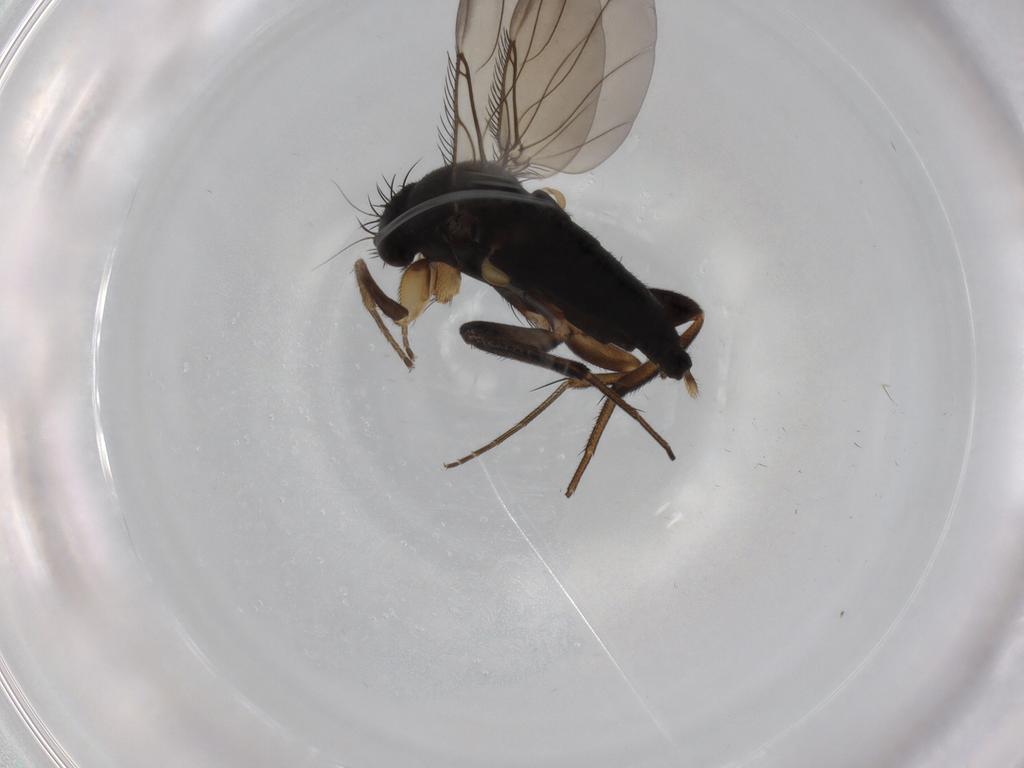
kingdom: Animalia
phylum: Arthropoda
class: Insecta
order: Diptera
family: Phoridae
